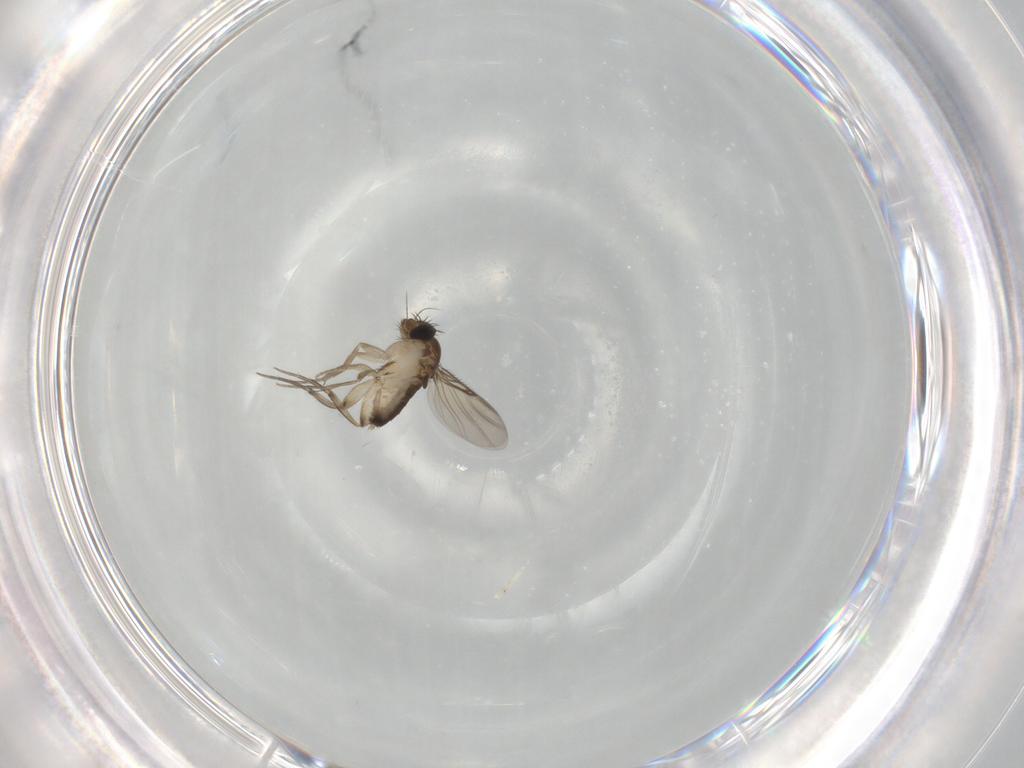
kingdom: Animalia
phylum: Arthropoda
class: Insecta
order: Diptera
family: Phoridae
